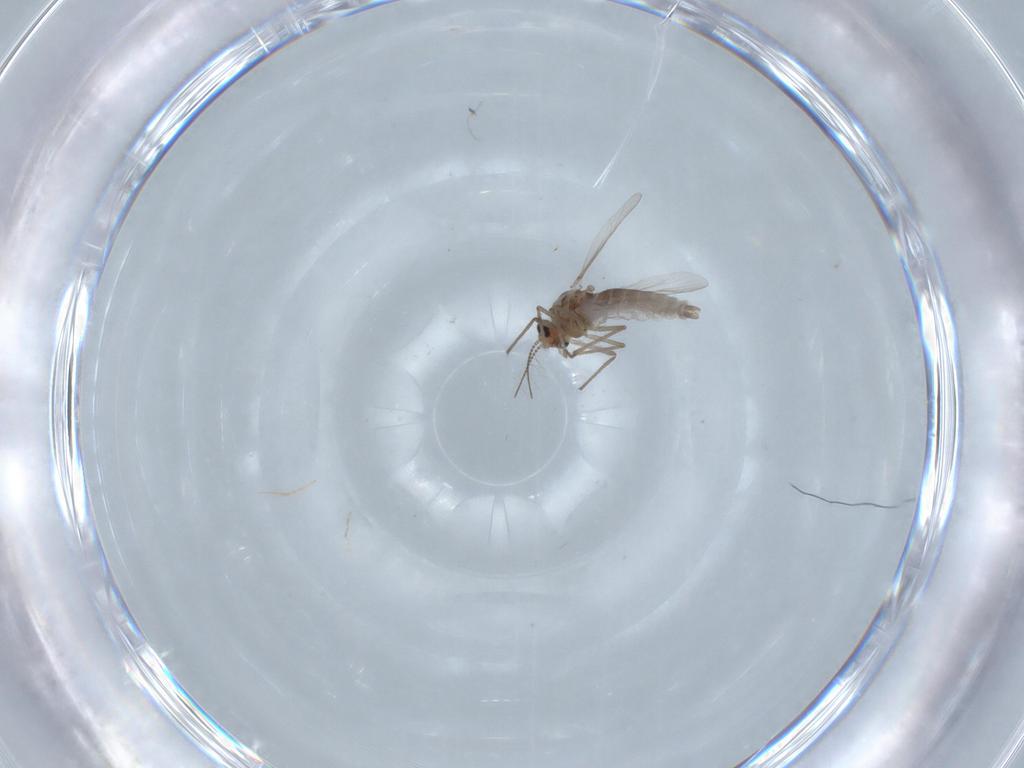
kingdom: Animalia
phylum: Arthropoda
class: Insecta
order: Diptera
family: Chironomidae
